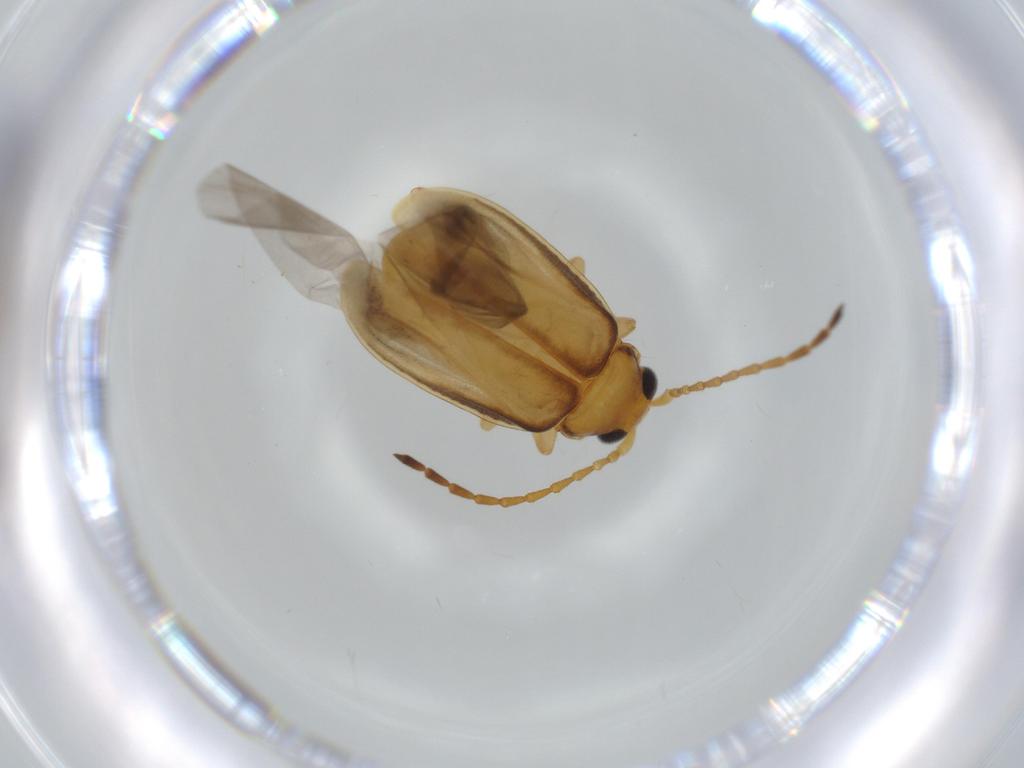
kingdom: Animalia
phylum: Arthropoda
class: Insecta
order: Coleoptera
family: Chrysomelidae
